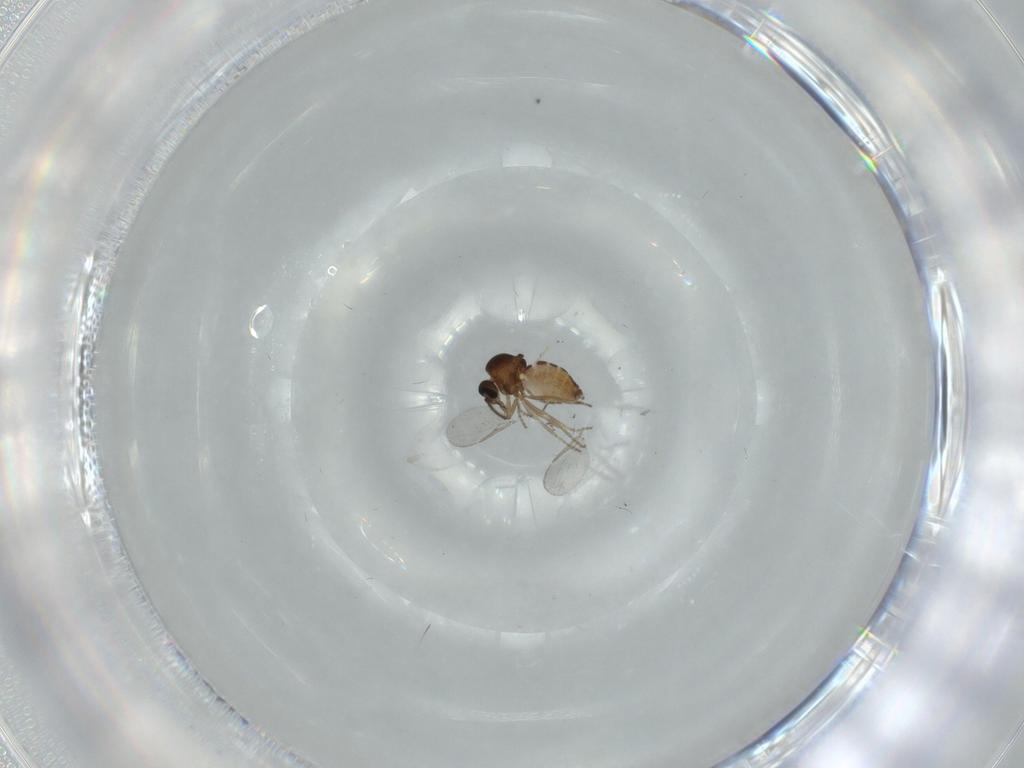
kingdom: Animalia
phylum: Arthropoda
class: Insecta
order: Diptera
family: Ceratopogonidae
